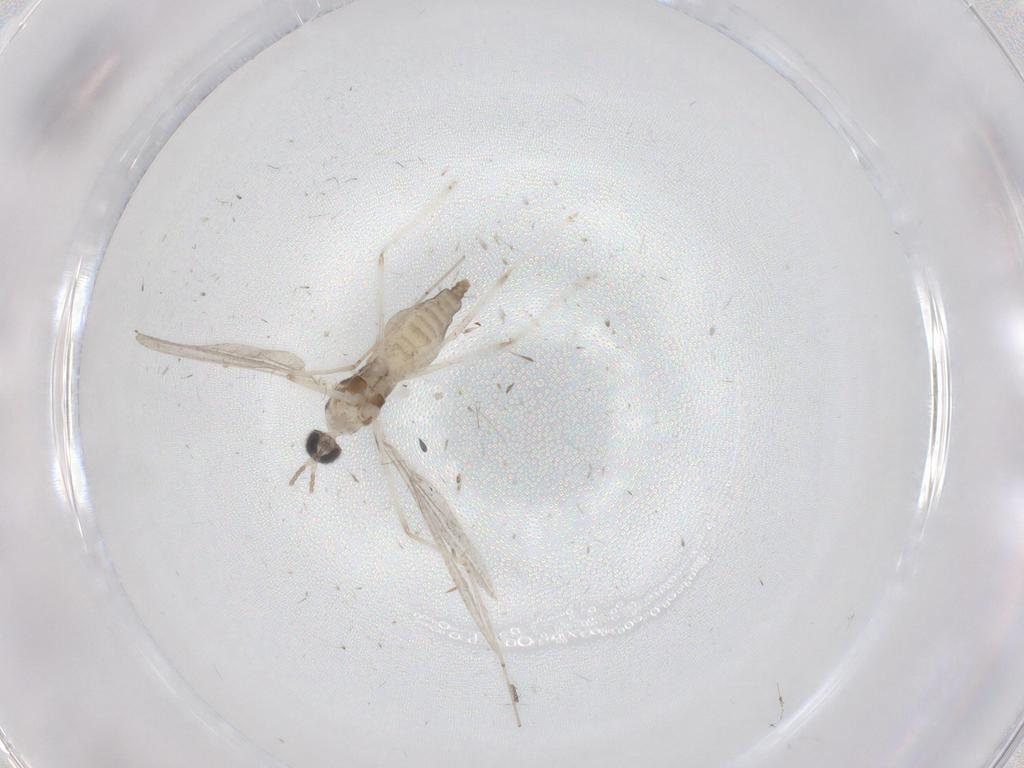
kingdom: Animalia
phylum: Arthropoda
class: Insecta
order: Diptera
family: Cecidomyiidae
